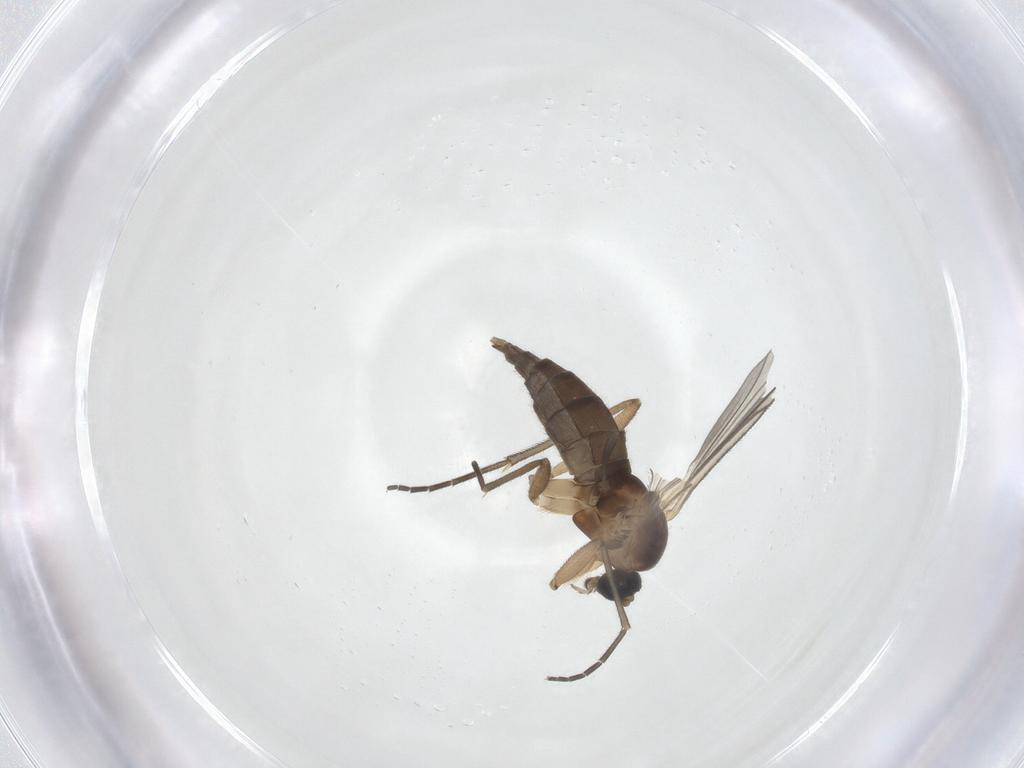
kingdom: Animalia
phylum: Arthropoda
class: Insecta
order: Diptera
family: Sciaridae
